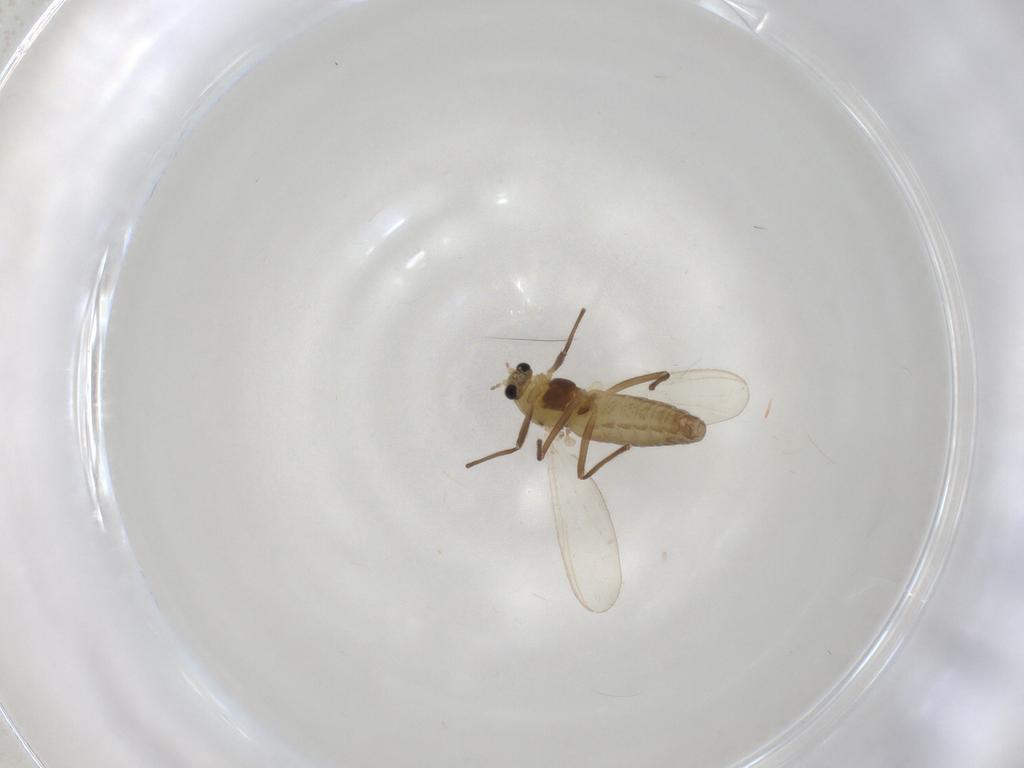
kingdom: Animalia
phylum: Arthropoda
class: Insecta
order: Diptera
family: Chironomidae
